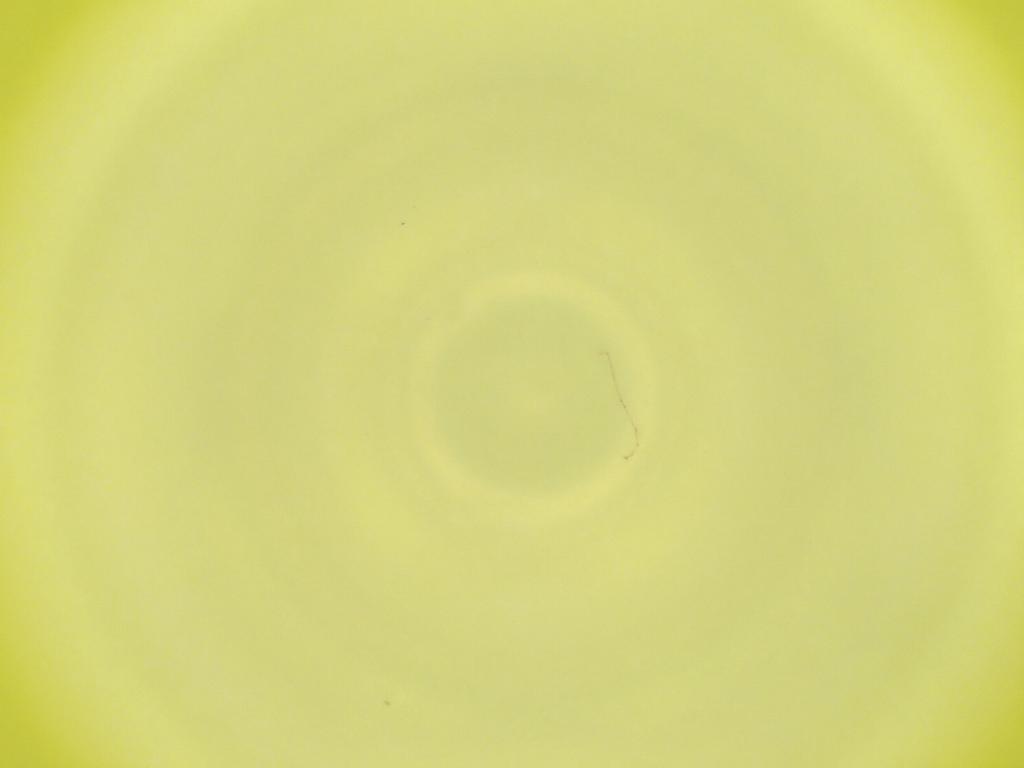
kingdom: Animalia
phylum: Arthropoda
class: Insecta
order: Diptera
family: Cecidomyiidae
